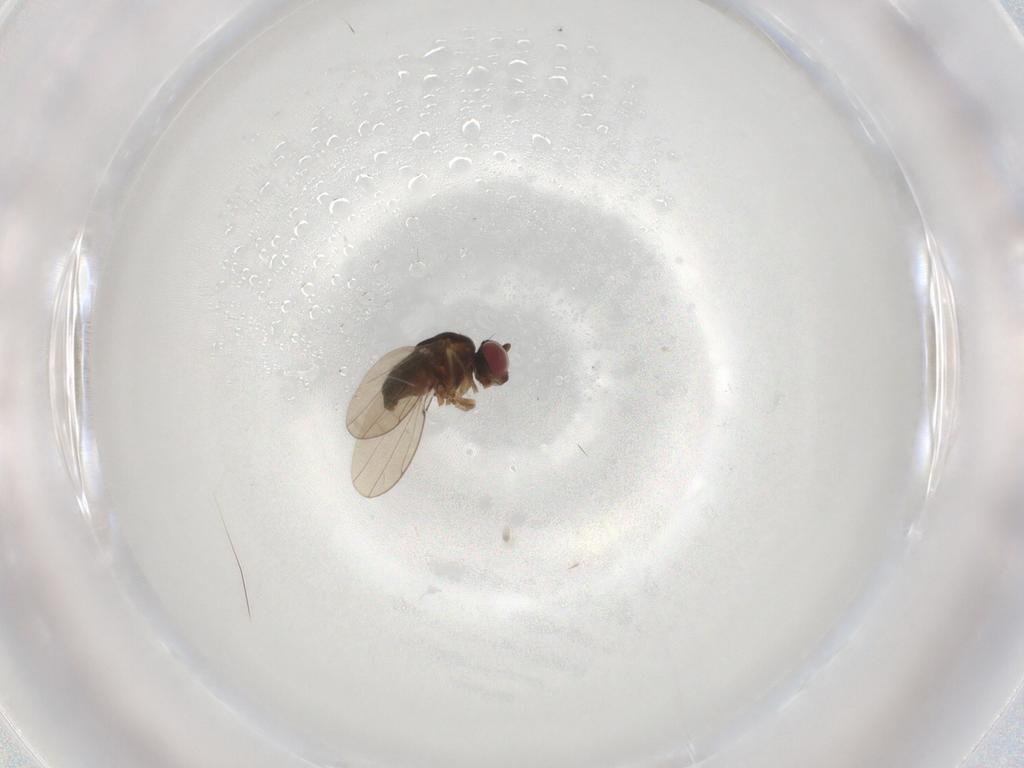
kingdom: Animalia
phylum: Arthropoda
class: Insecta
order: Diptera
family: Ephydridae
